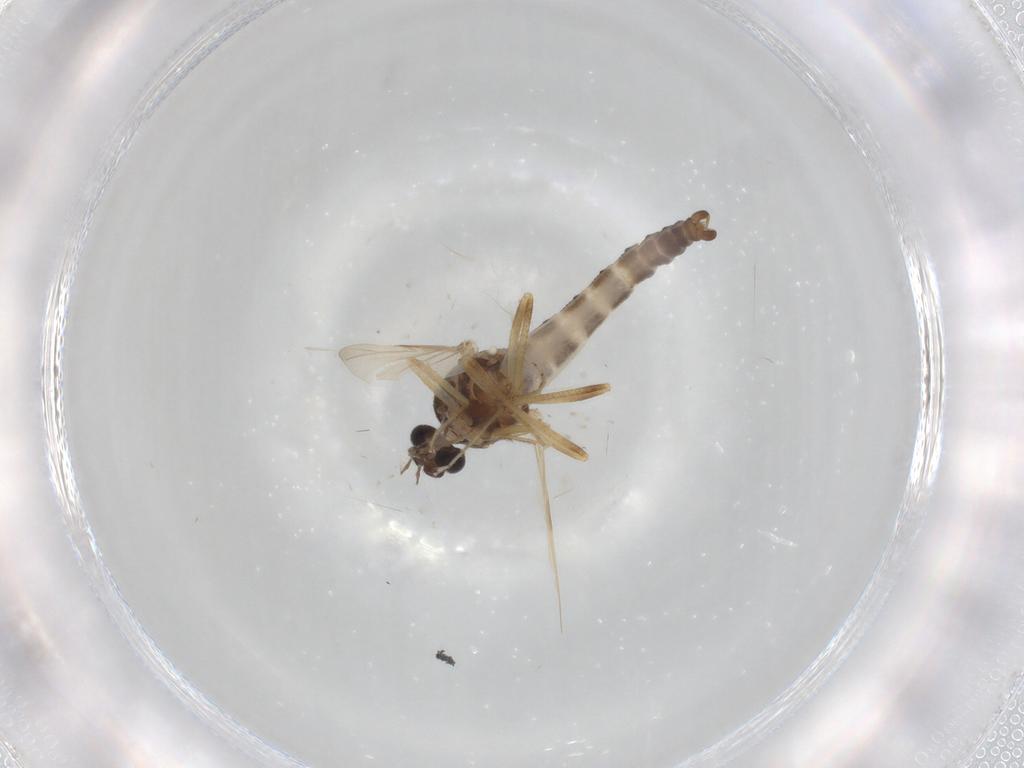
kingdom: Animalia
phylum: Arthropoda
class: Insecta
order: Diptera
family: Ceratopogonidae
